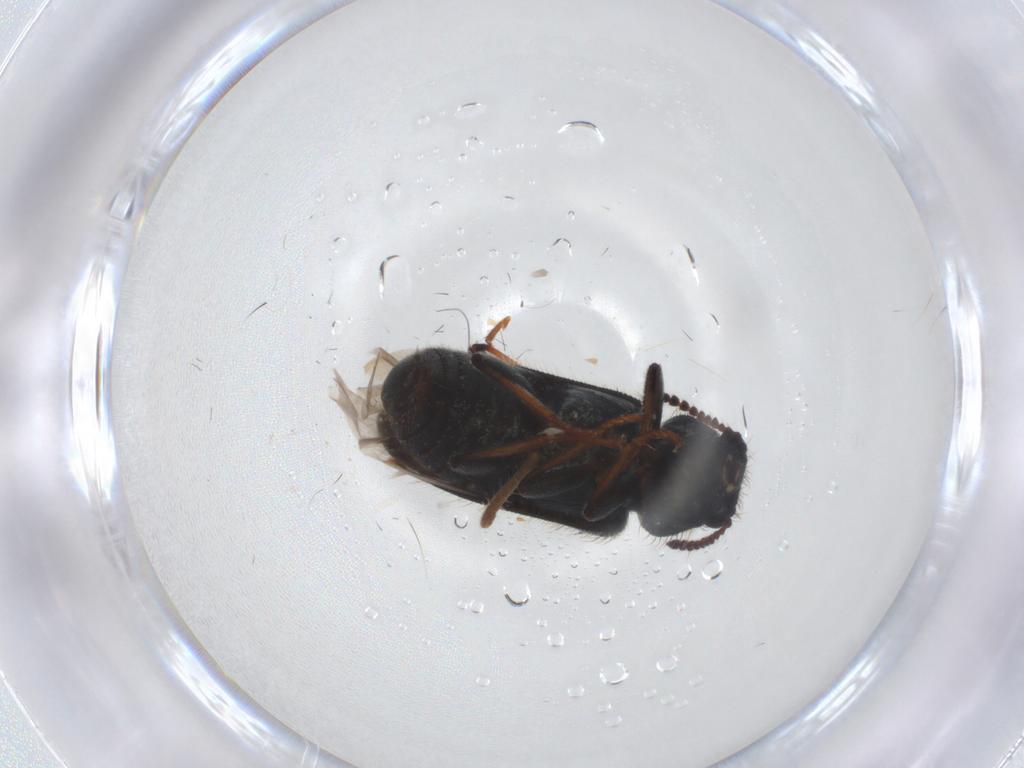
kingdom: Animalia
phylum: Arthropoda
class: Insecta
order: Coleoptera
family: Melyridae
